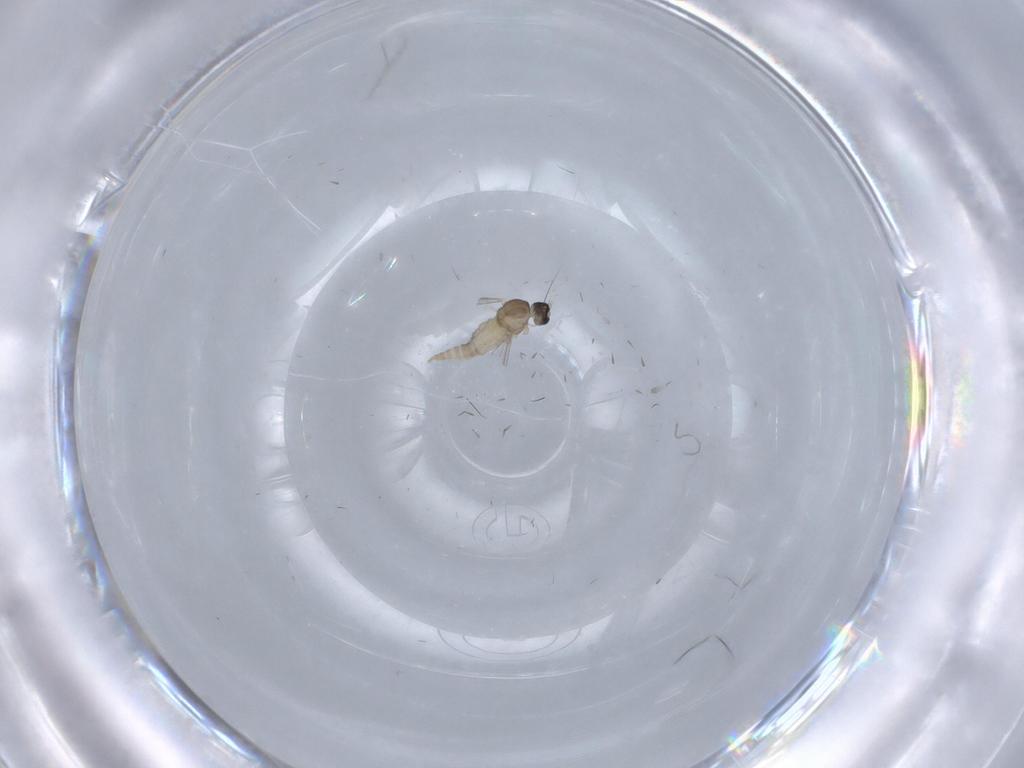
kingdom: Animalia
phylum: Arthropoda
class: Insecta
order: Diptera
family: Cecidomyiidae
